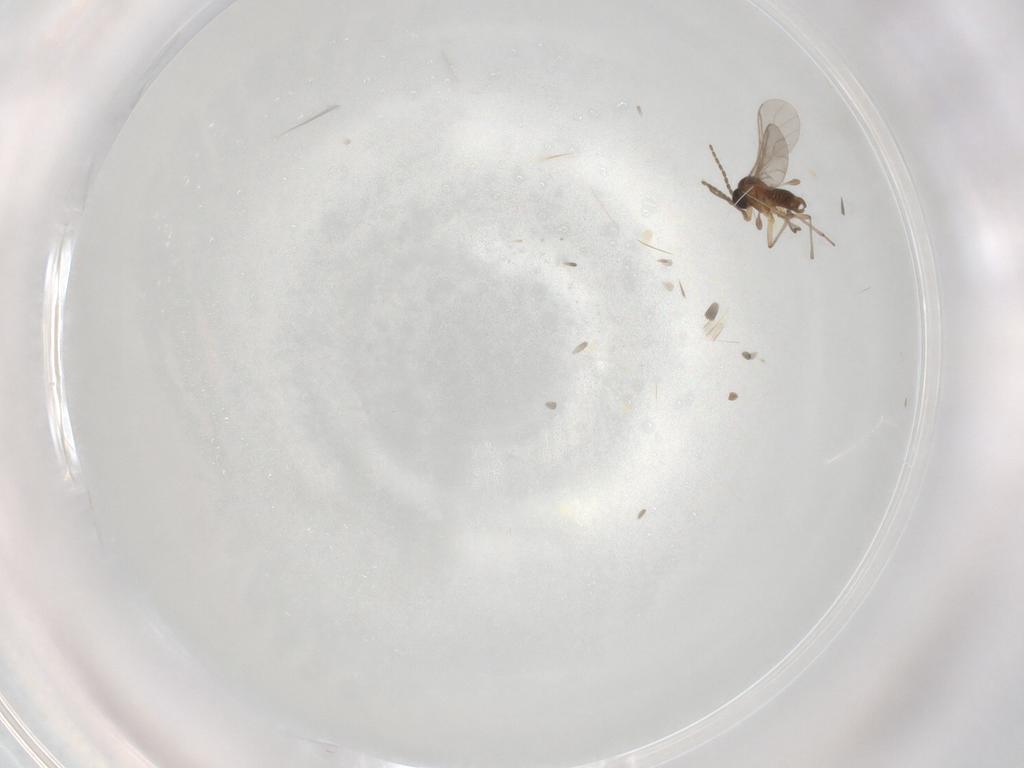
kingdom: Animalia
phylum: Arthropoda
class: Insecta
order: Diptera
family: Sciaridae
